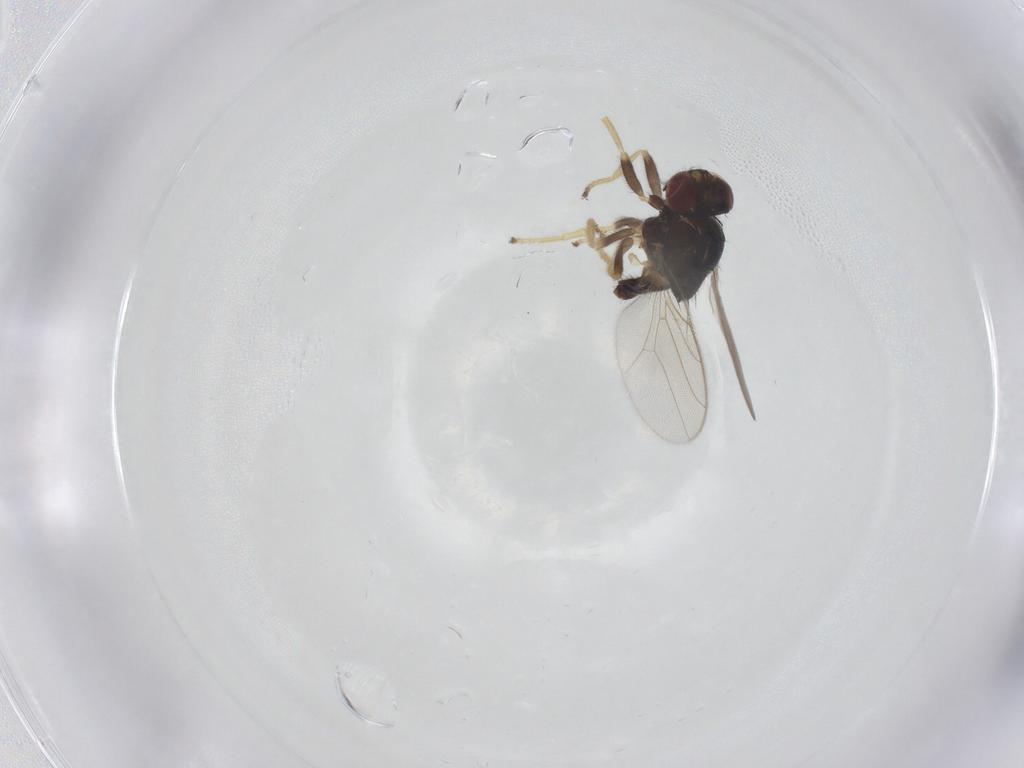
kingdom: Animalia
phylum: Arthropoda
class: Insecta
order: Diptera
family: Chloropidae
